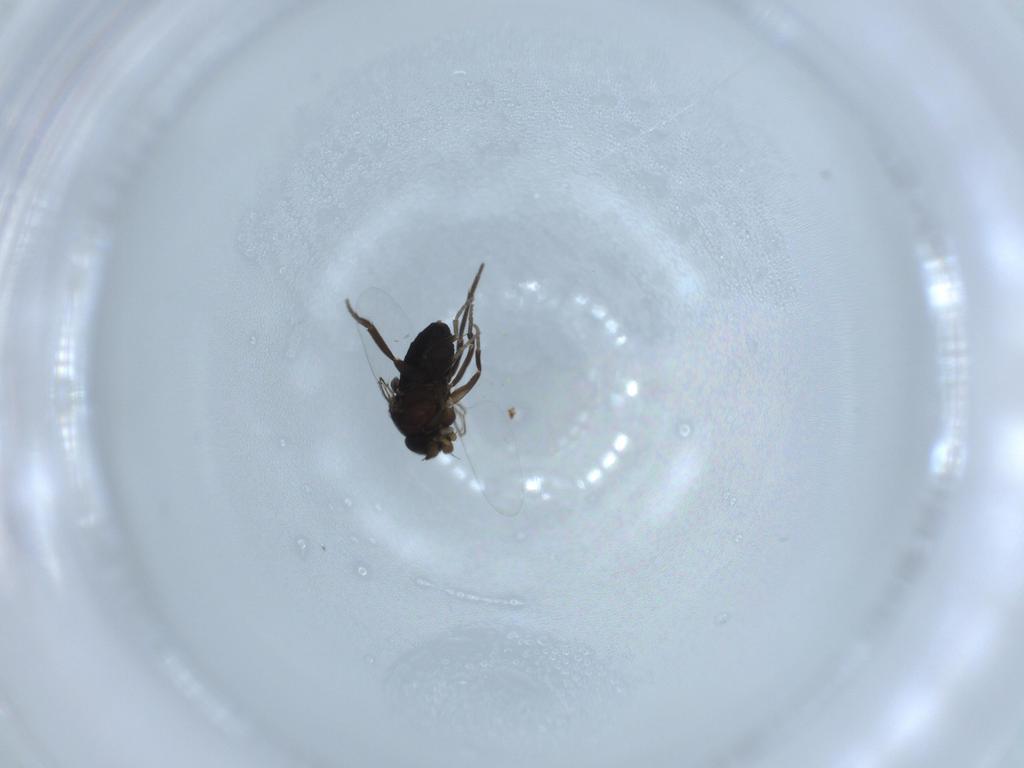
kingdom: Animalia
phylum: Arthropoda
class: Insecta
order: Diptera
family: Phoridae
